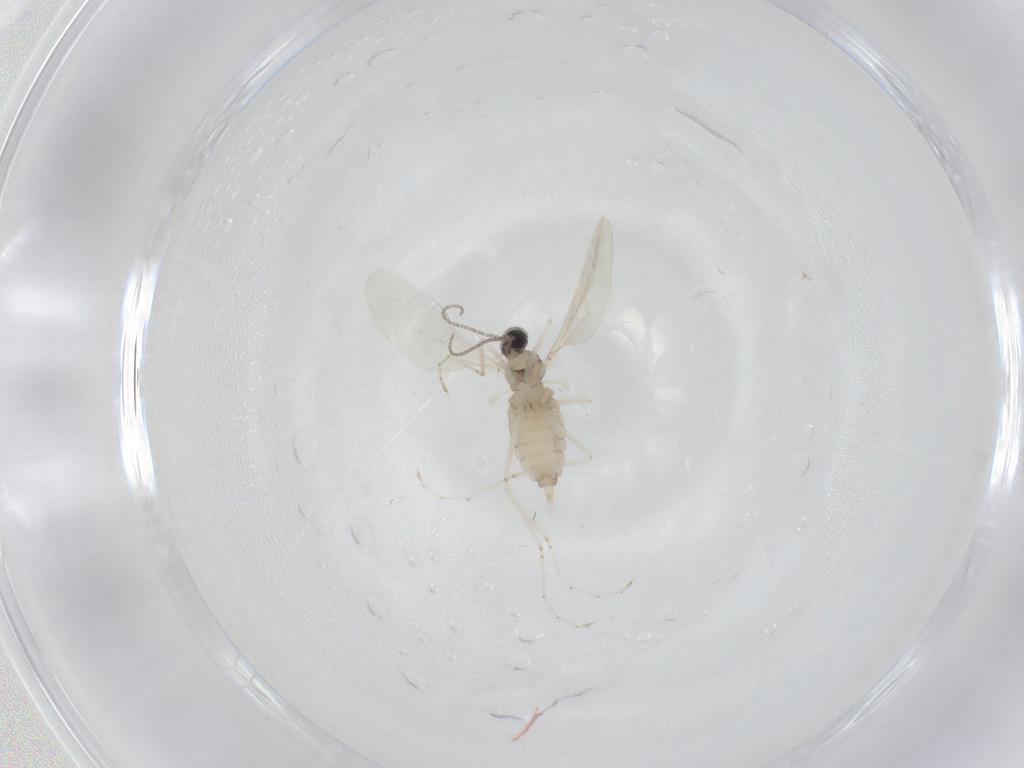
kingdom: Animalia
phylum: Arthropoda
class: Insecta
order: Diptera
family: Cecidomyiidae
